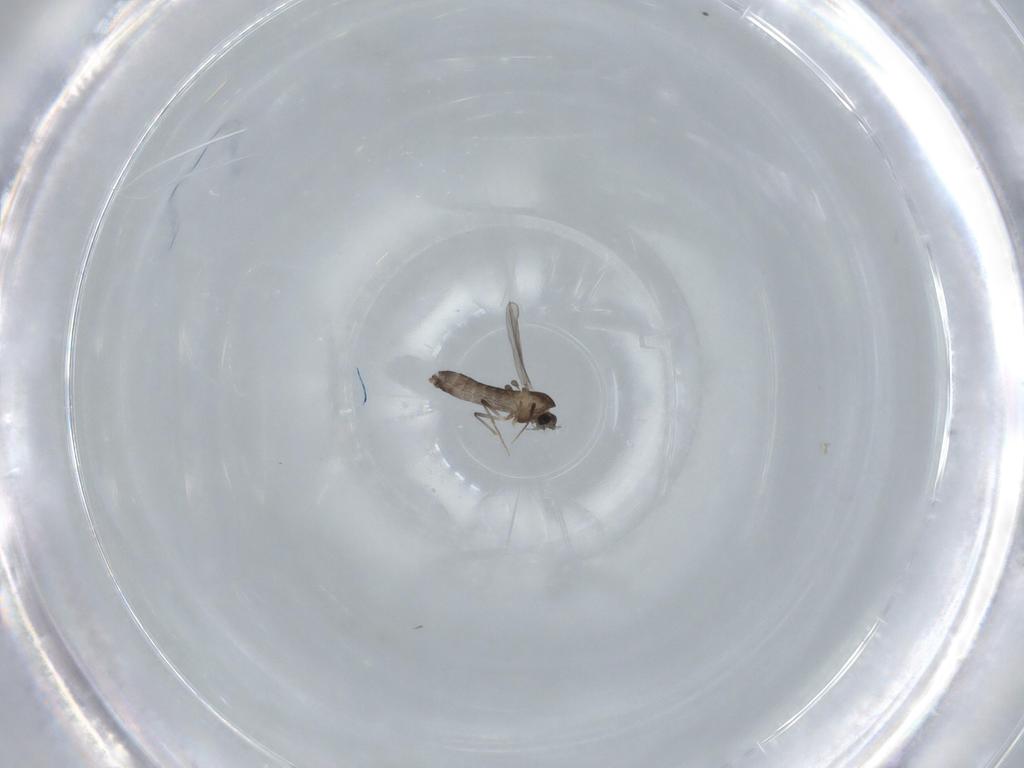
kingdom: Animalia
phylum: Arthropoda
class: Insecta
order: Diptera
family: Chironomidae
